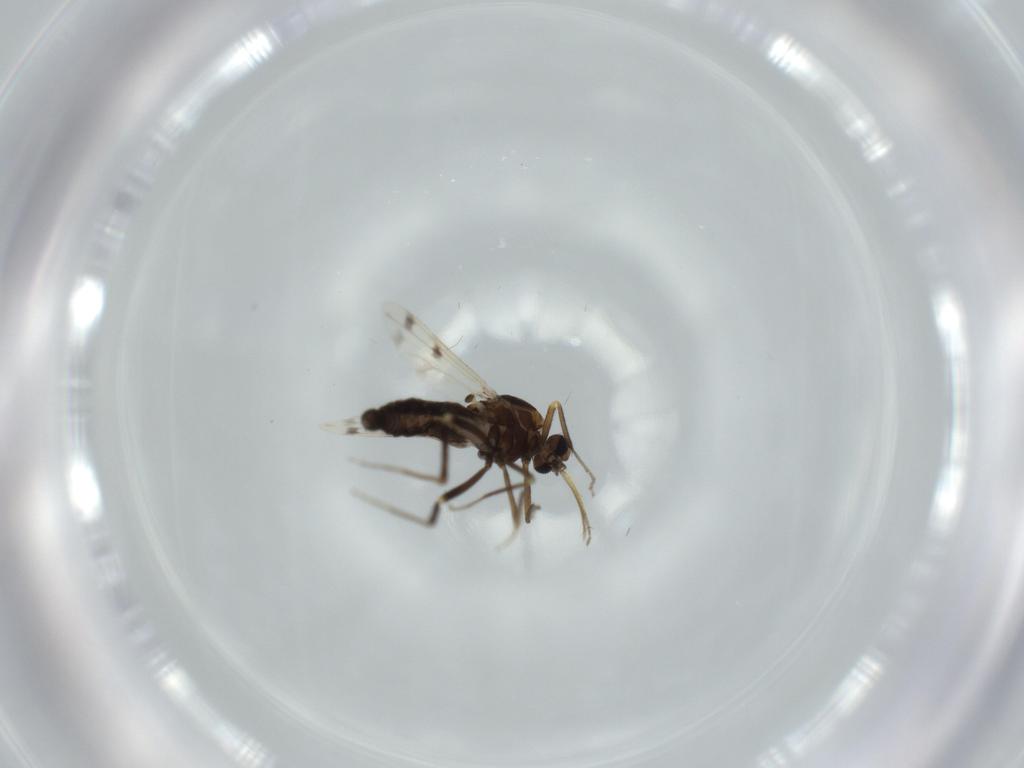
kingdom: Animalia
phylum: Arthropoda
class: Insecta
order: Diptera
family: Ceratopogonidae
